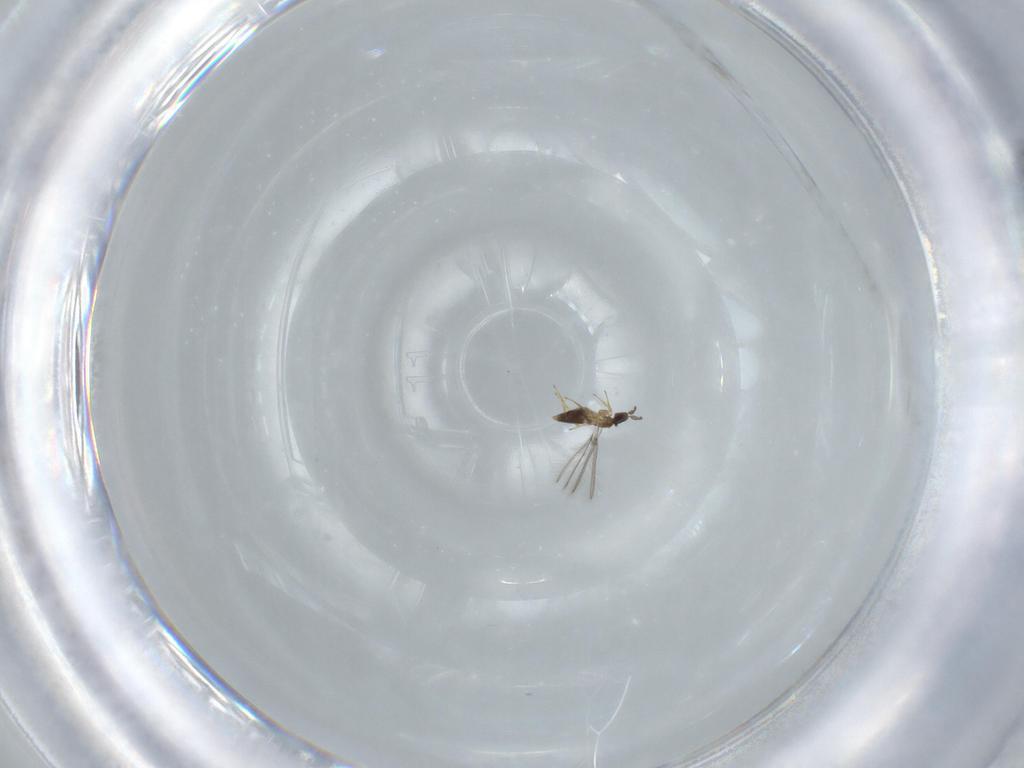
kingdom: Animalia
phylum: Arthropoda
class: Insecta
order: Hymenoptera
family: Mymaridae
